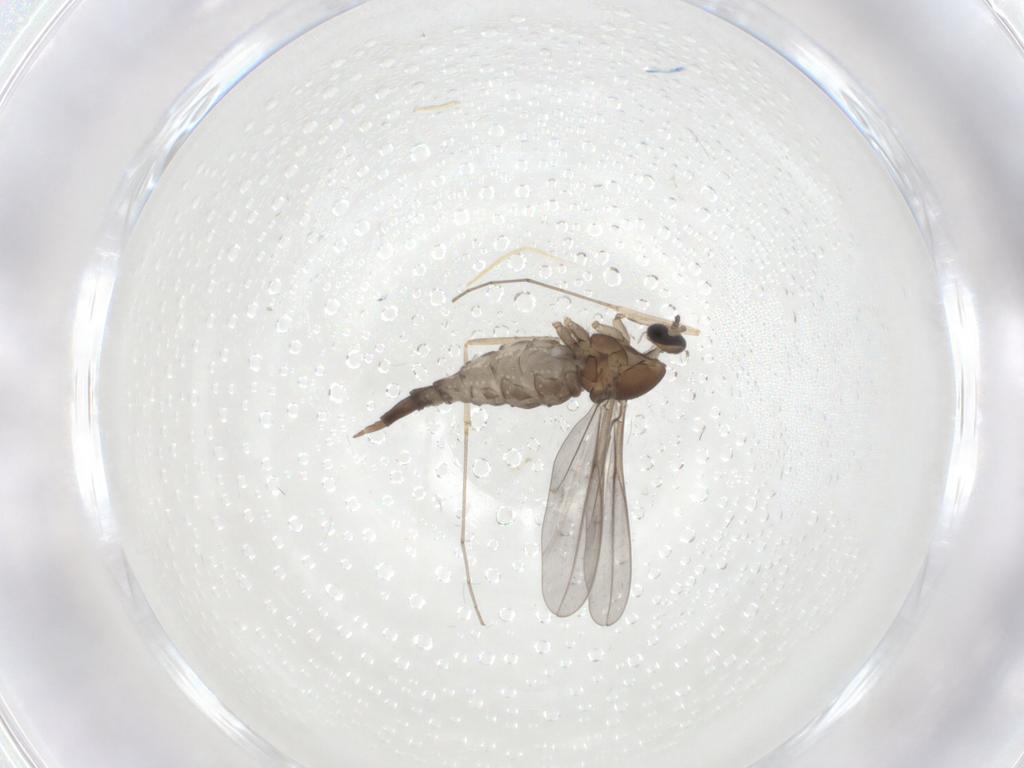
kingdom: Animalia
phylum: Arthropoda
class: Insecta
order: Diptera
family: Cecidomyiidae
